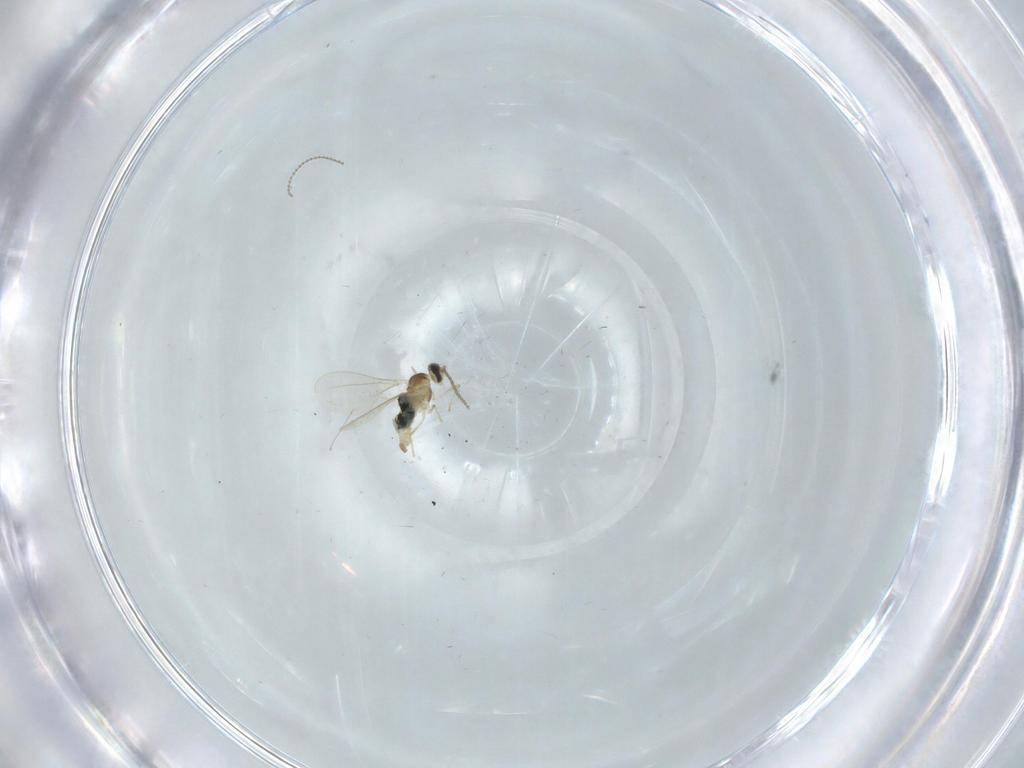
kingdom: Animalia
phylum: Arthropoda
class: Insecta
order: Diptera
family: Cecidomyiidae
